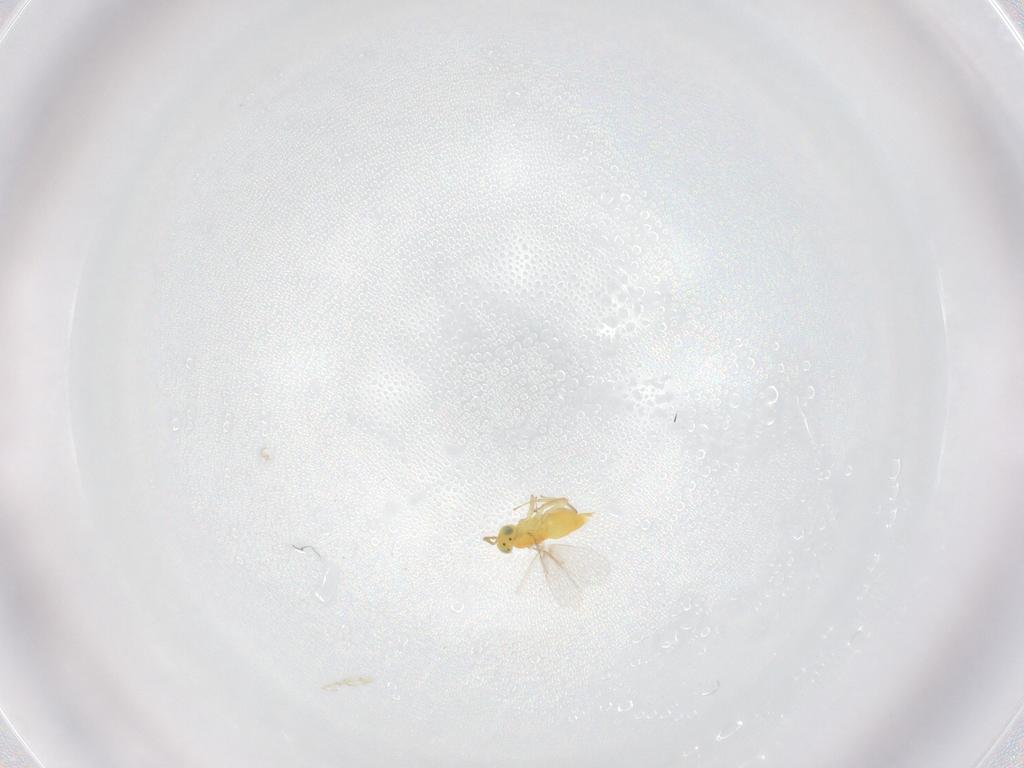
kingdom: Animalia
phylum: Arthropoda
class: Insecta
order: Hymenoptera
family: Aphelinidae
